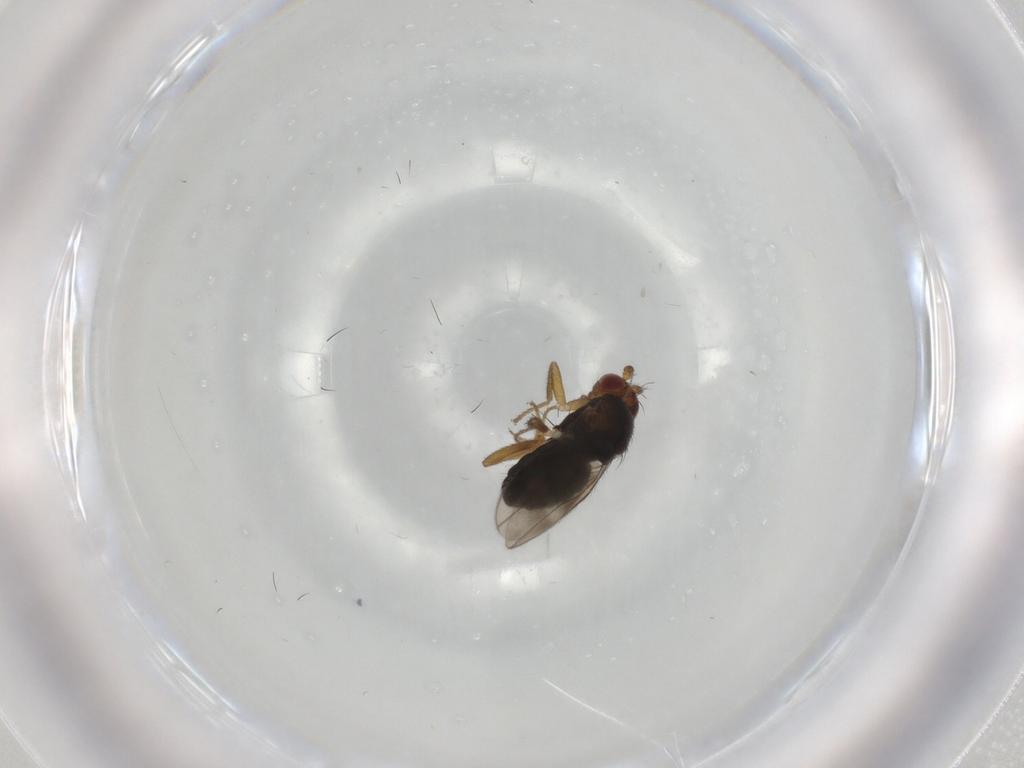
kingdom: Animalia
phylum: Arthropoda
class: Insecta
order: Diptera
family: Sphaeroceridae
